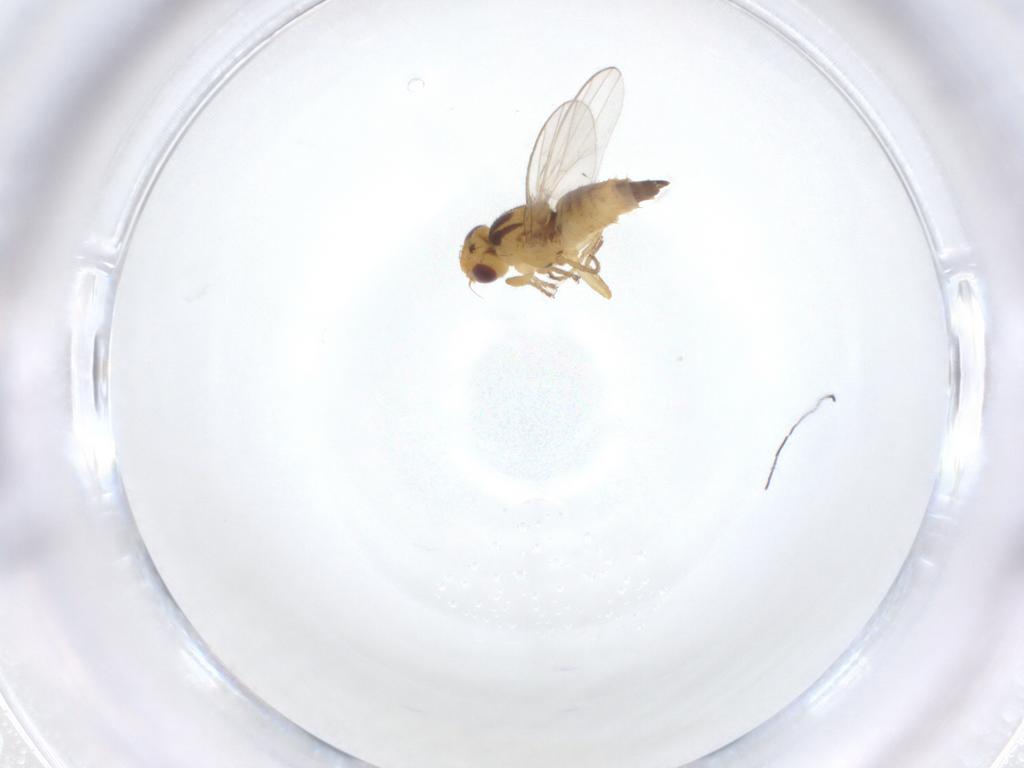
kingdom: Animalia
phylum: Arthropoda
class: Insecta
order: Diptera
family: Chloropidae
